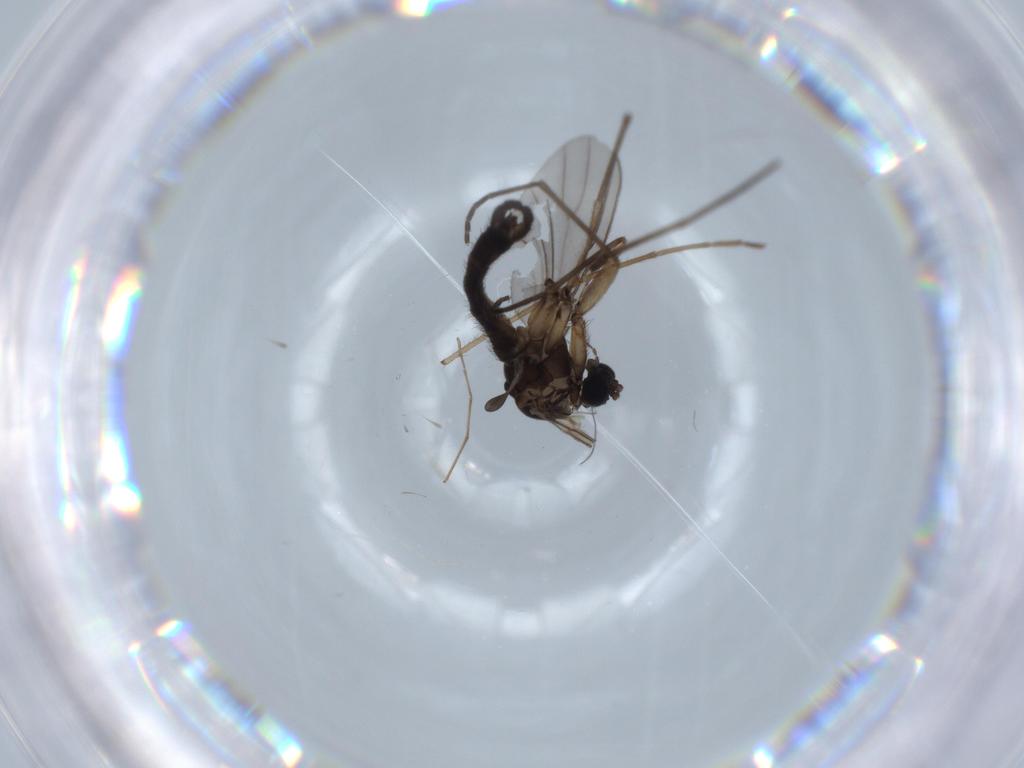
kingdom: Animalia
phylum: Arthropoda
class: Insecta
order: Diptera
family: Sciaridae
